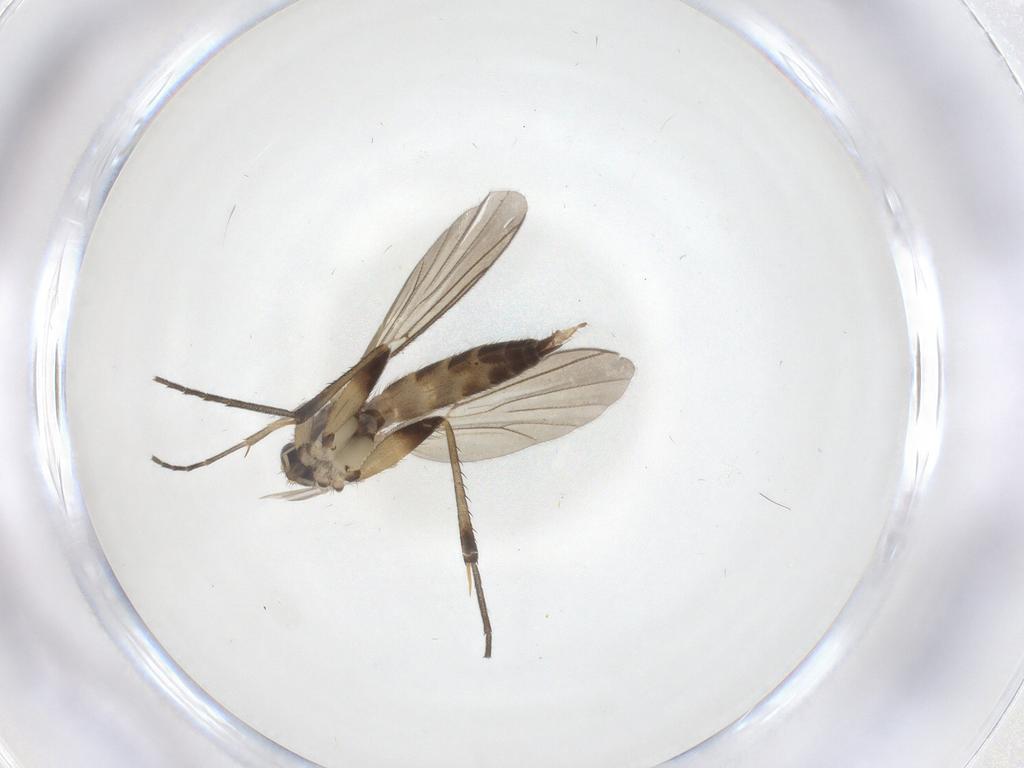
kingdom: Animalia
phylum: Arthropoda
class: Insecta
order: Diptera
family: Mycetophilidae
